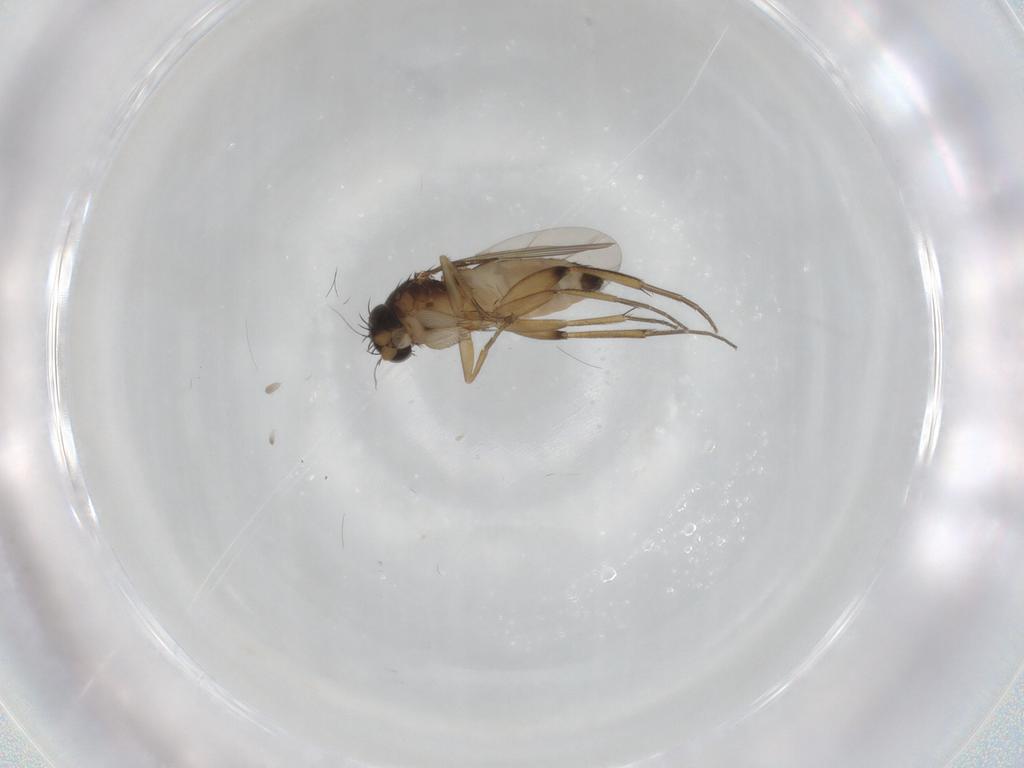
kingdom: Animalia
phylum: Arthropoda
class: Insecta
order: Diptera
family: Phoridae
